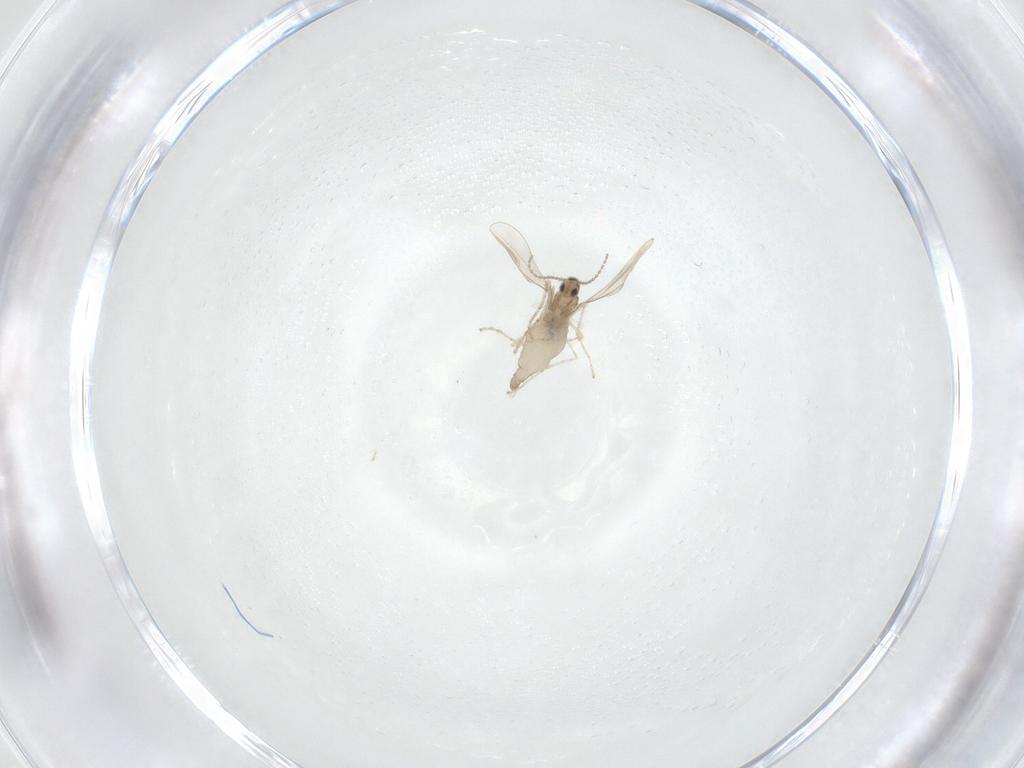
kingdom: Animalia
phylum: Arthropoda
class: Insecta
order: Diptera
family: Cecidomyiidae
